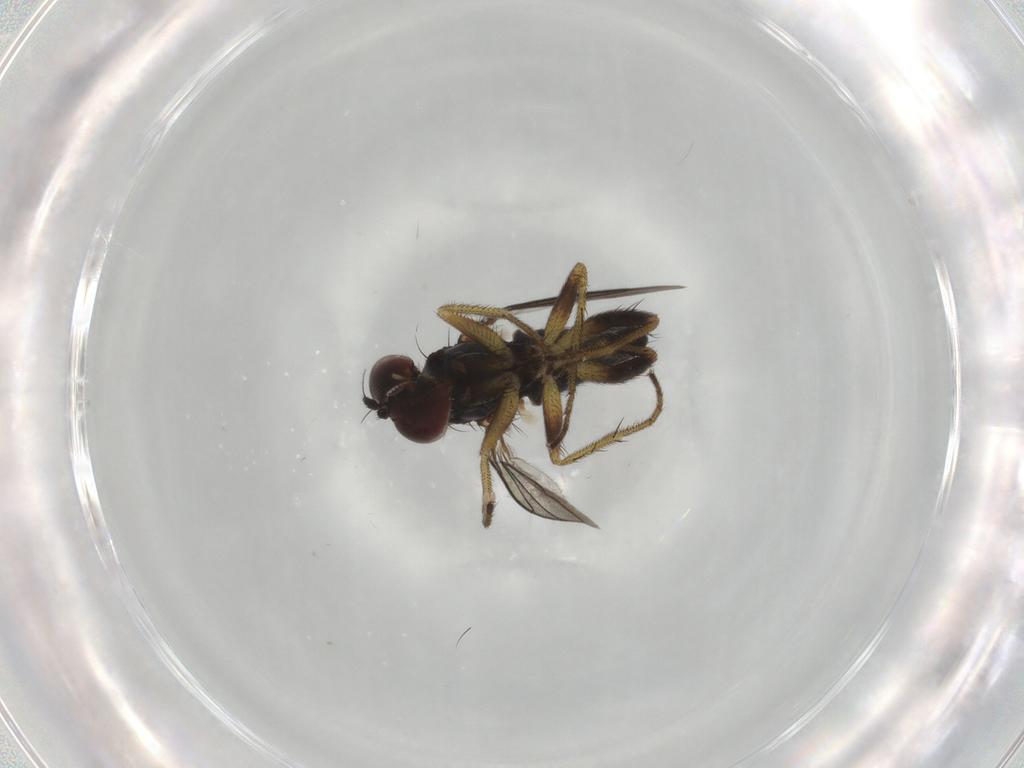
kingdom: Animalia
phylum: Arthropoda
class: Insecta
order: Diptera
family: Dolichopodidae
